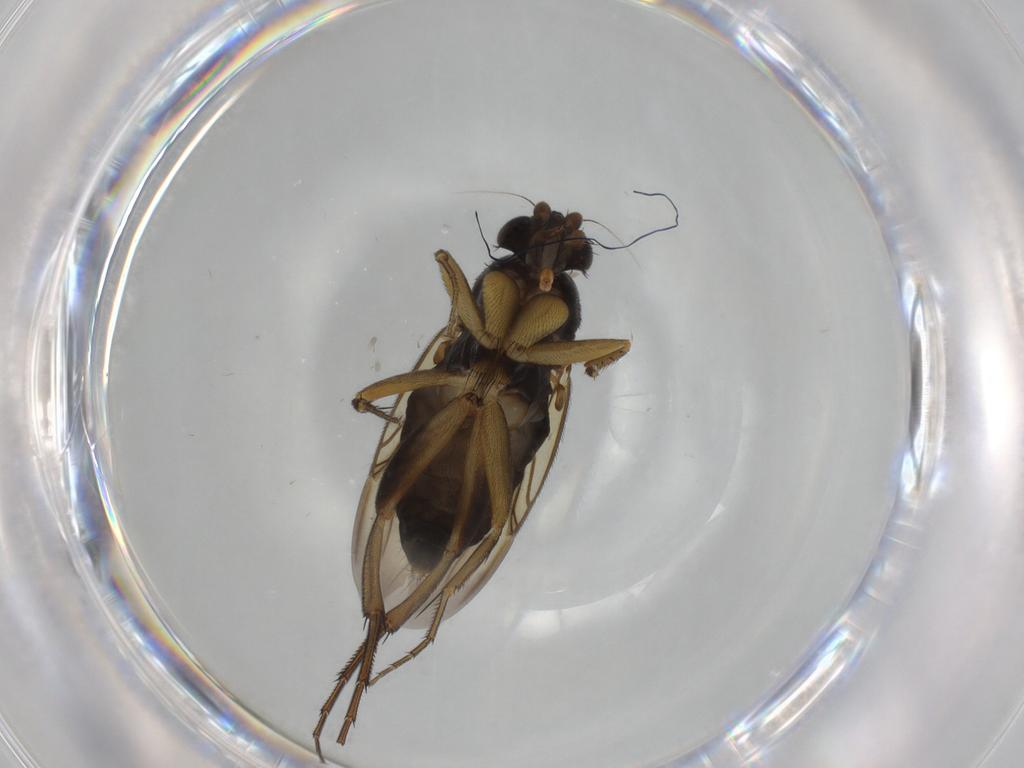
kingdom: Animalia
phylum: Arthropoda
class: Insecta
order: Diptera
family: Phoridae
